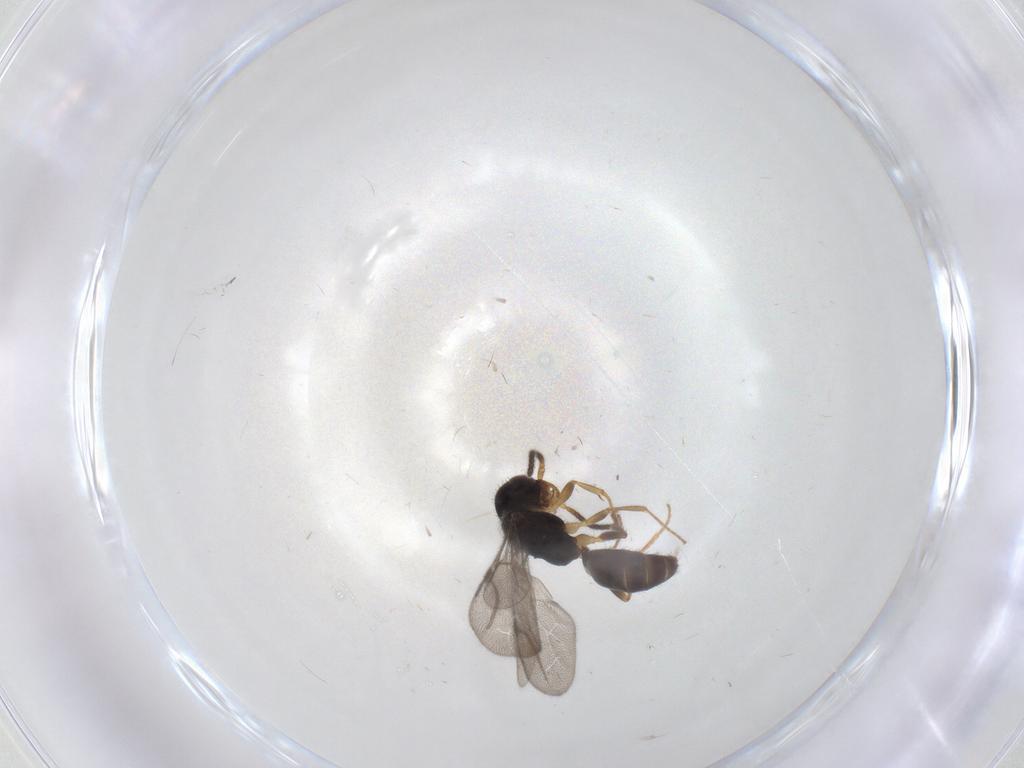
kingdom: Animalia
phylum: Arthropoda
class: Insecta
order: Hymenoptera
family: Bethylidae
